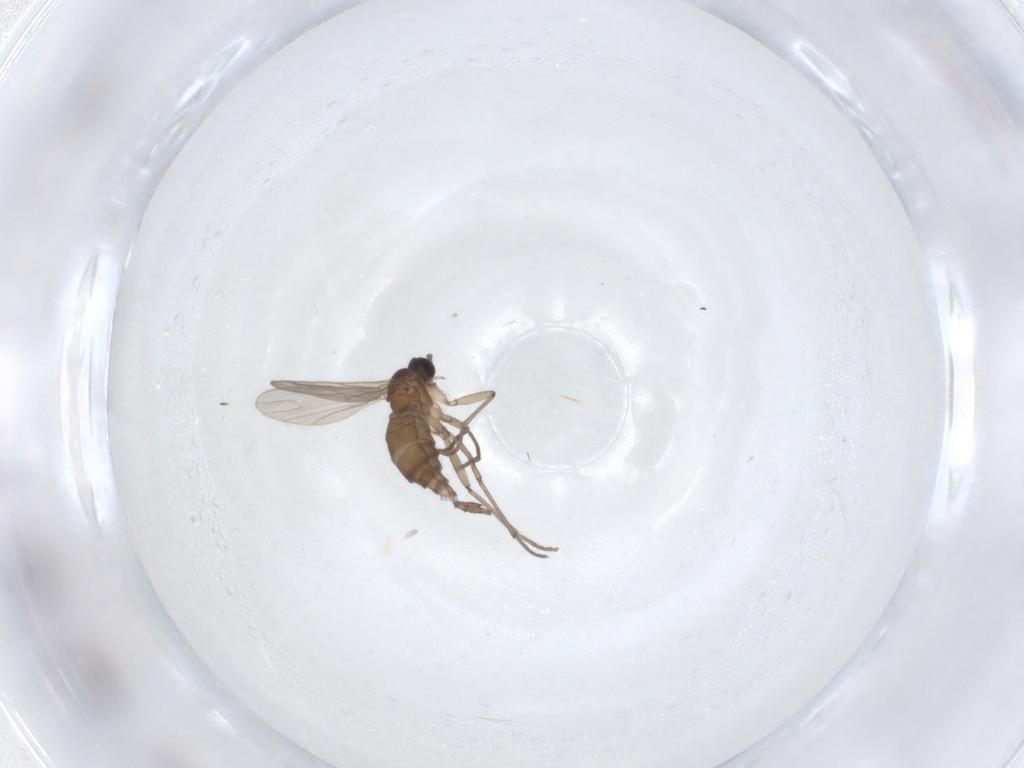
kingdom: Animalia
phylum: Arthropoda
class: Insecta
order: Diptera
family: Sciaridae
